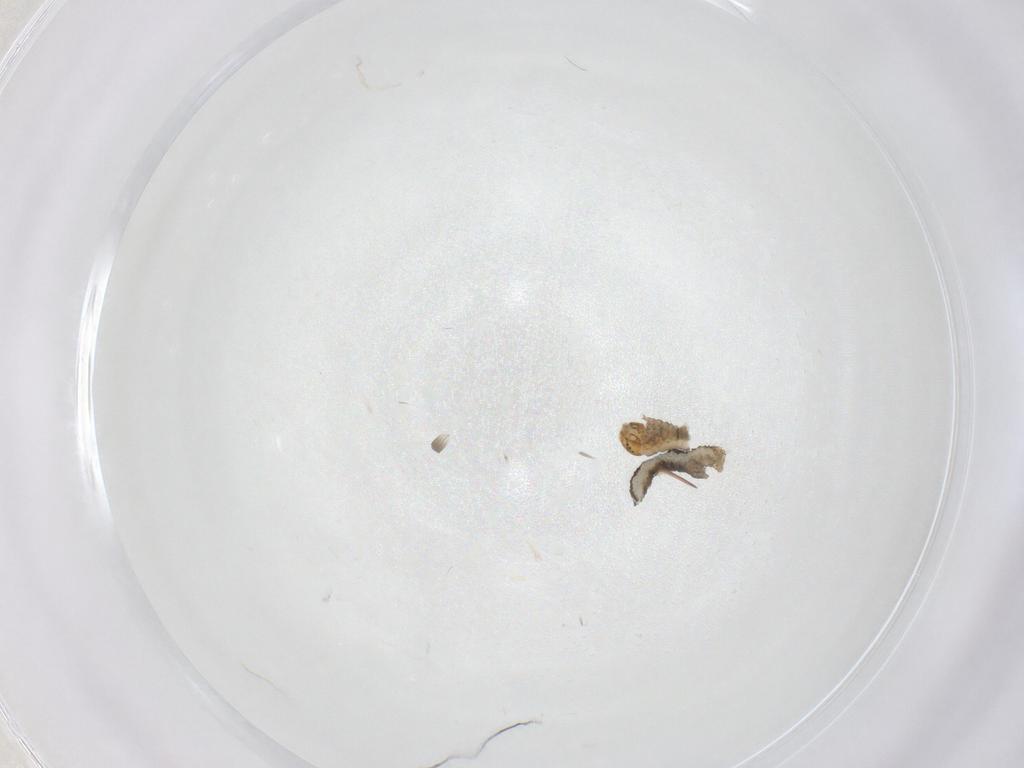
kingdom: Animalia
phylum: Arthropoda
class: Insecta
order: Lepidoptera
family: Geometridae
